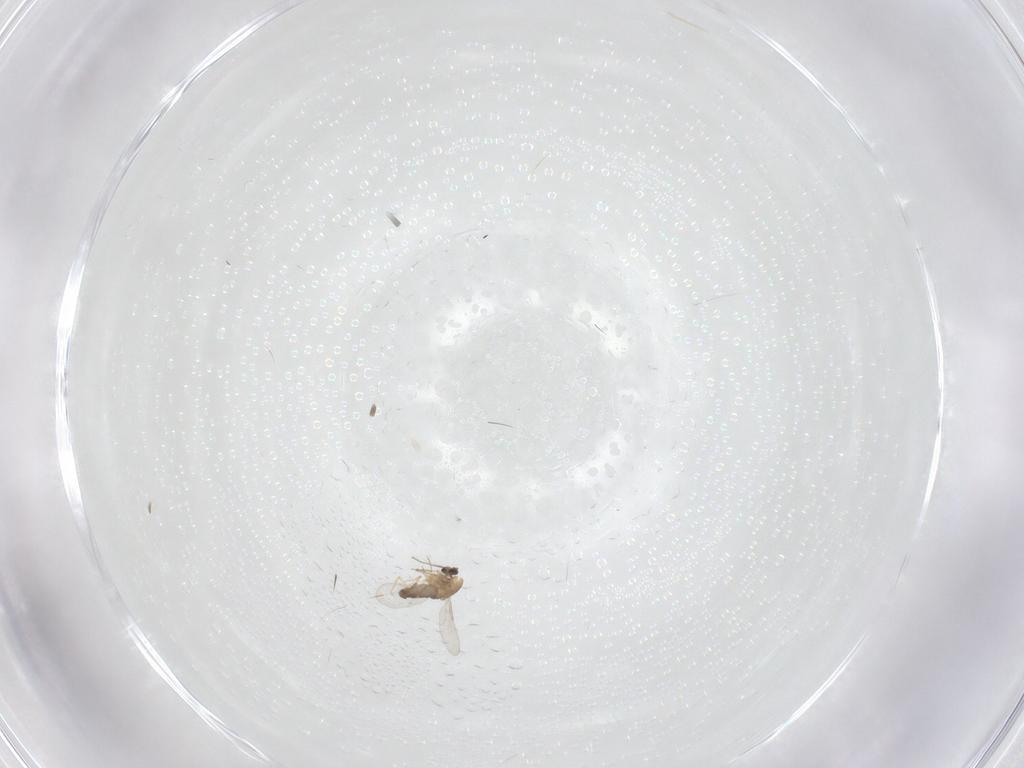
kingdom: Animalia
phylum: Arthropoda
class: Insecta
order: Diptera
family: Ceratopogonidae
